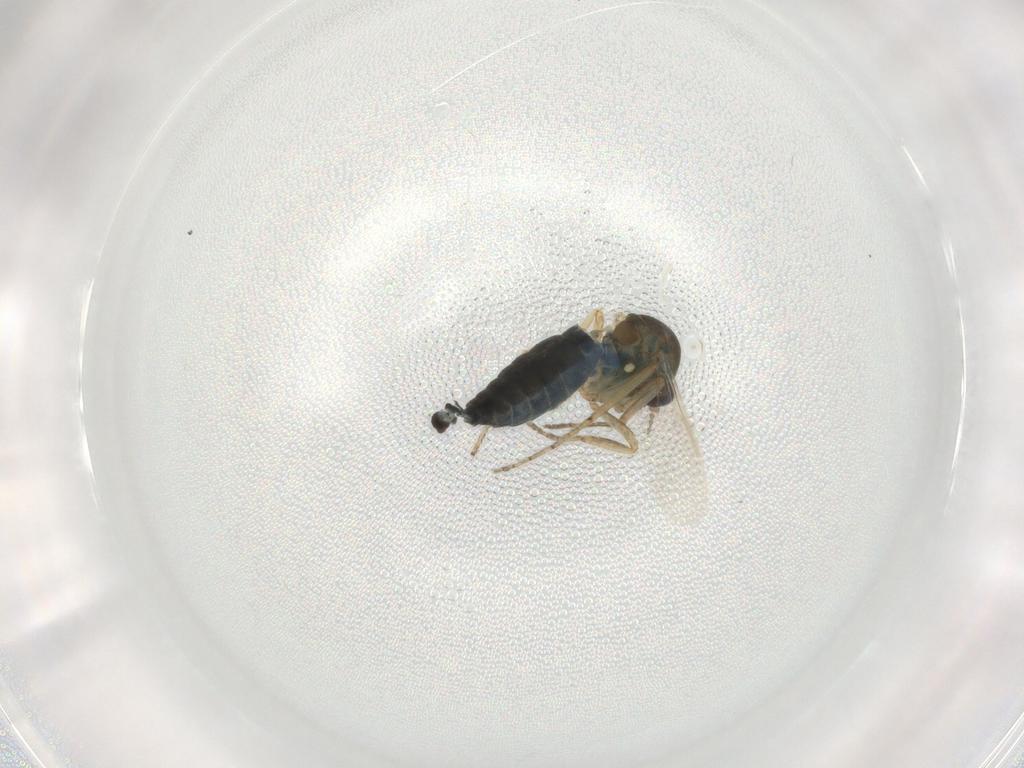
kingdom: Animalia
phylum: Arthropoda
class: Insecta
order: Diptera
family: Ceratopogonidae
